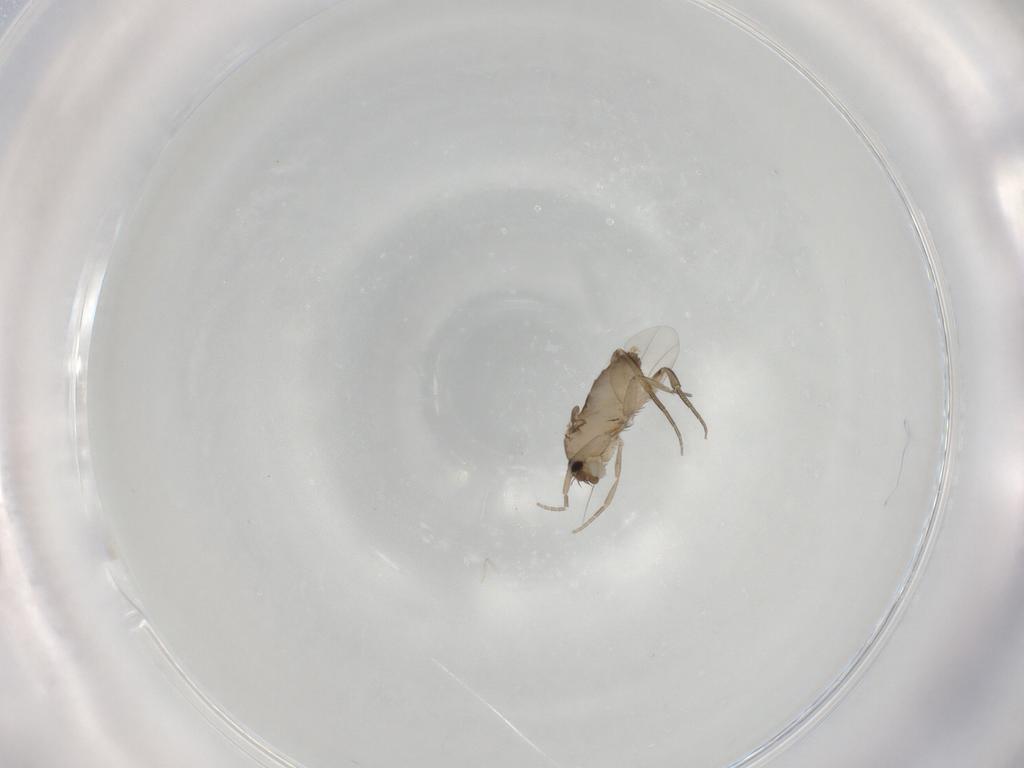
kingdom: Animalia
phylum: Arthropoda
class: Insecta
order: Diptera
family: Phoridae
